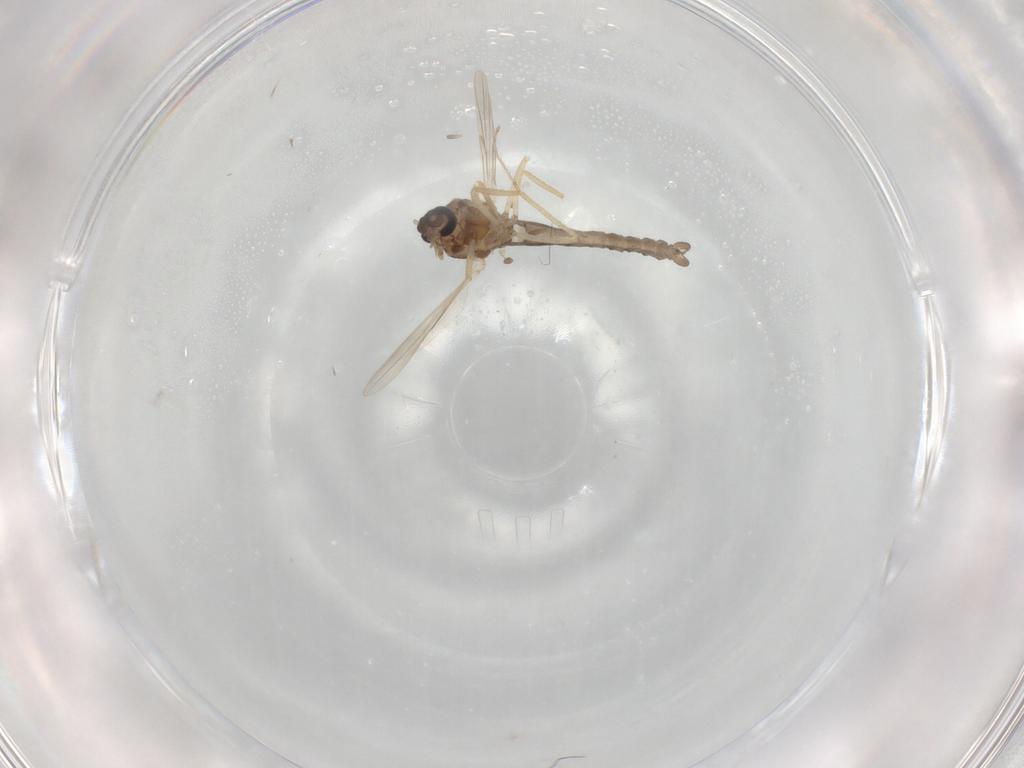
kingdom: Animalia
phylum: Arthropoda
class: Insecta
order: Diptera
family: Ceratopogonidae
